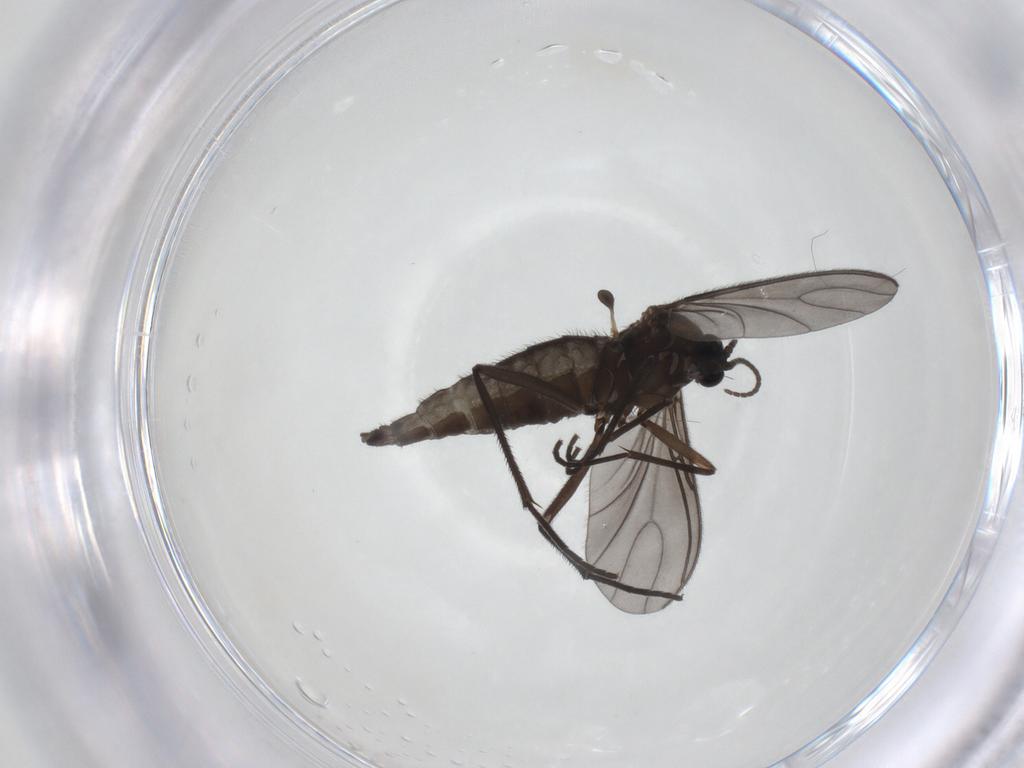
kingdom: Animalia
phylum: Arthropoda
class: Insecta
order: Diptera
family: Sciaridae
